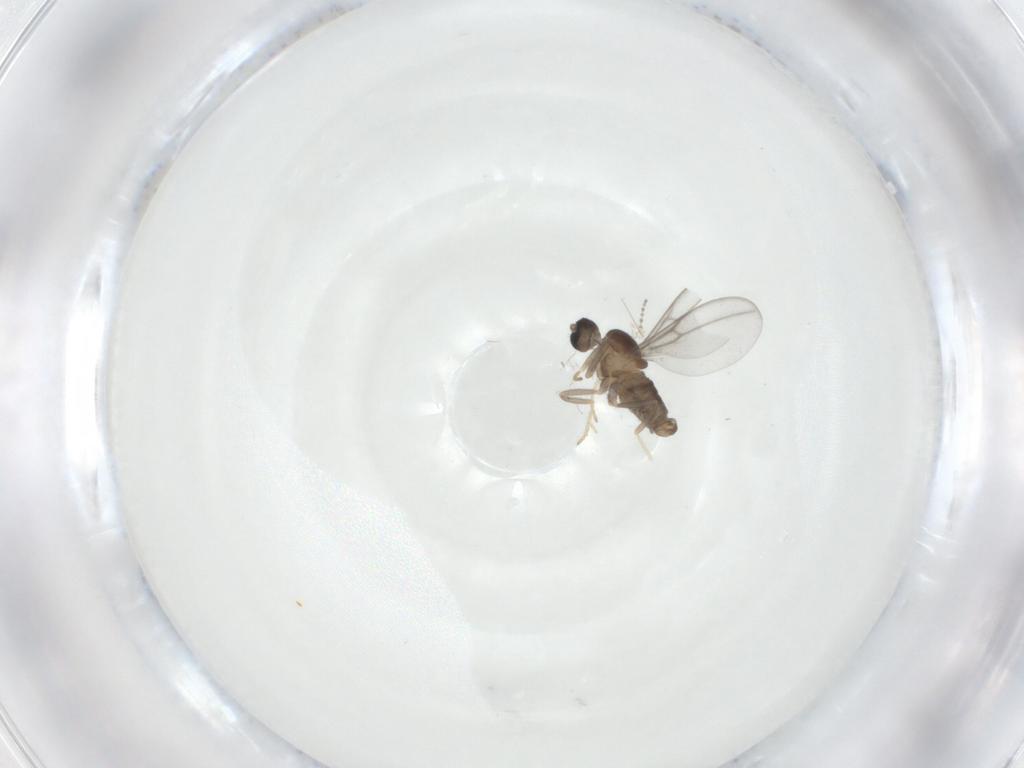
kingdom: Animalia
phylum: Arthropoda
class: Insecta
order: Diptera
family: Cecidomyiidae
